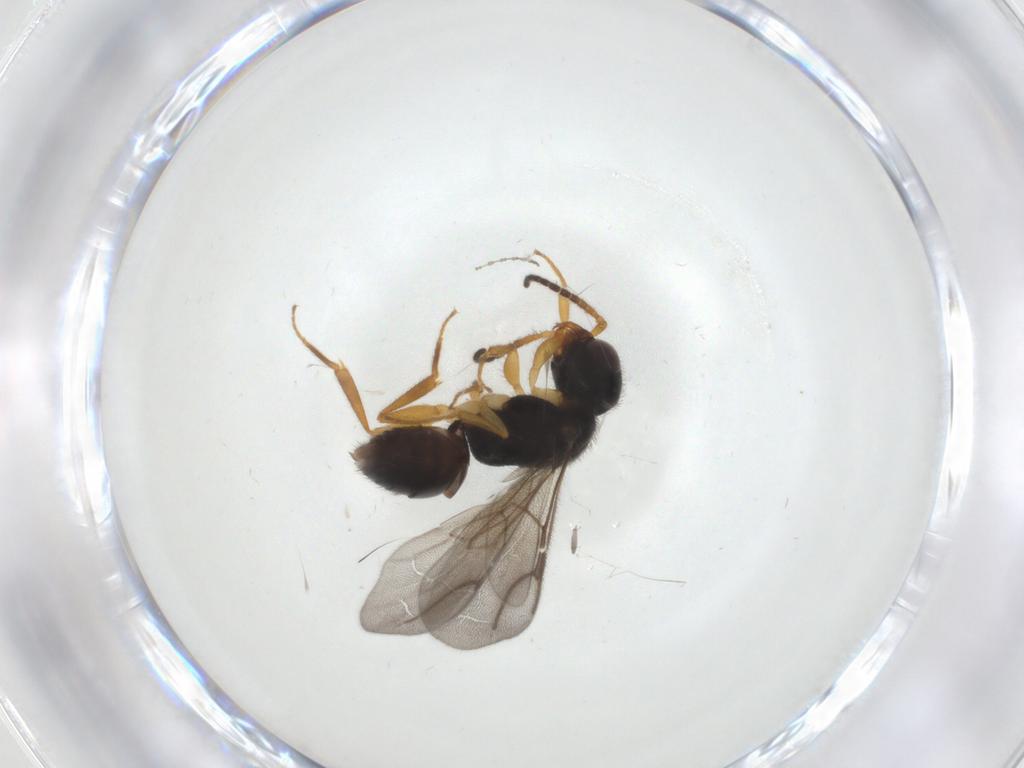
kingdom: Animalia
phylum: Arthropoda
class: Insecta
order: Hymenoptera
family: Bethylidae
